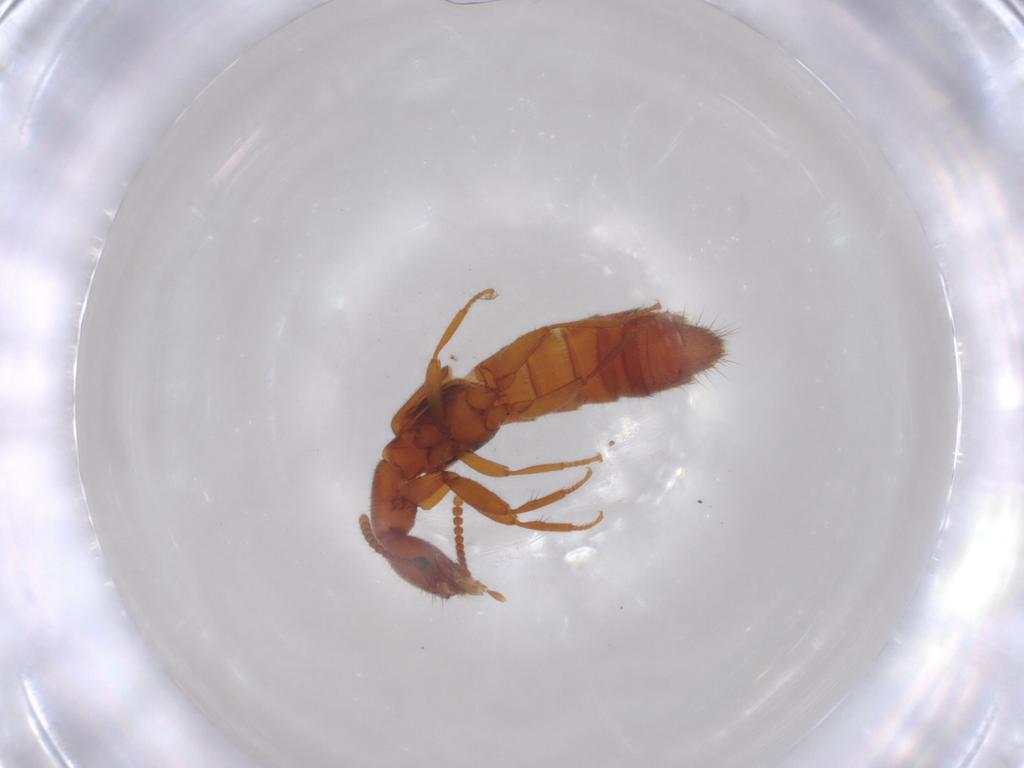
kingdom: Animalia
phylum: Arthropoda
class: Insecta
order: Coleoptera
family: Staphylinidae
